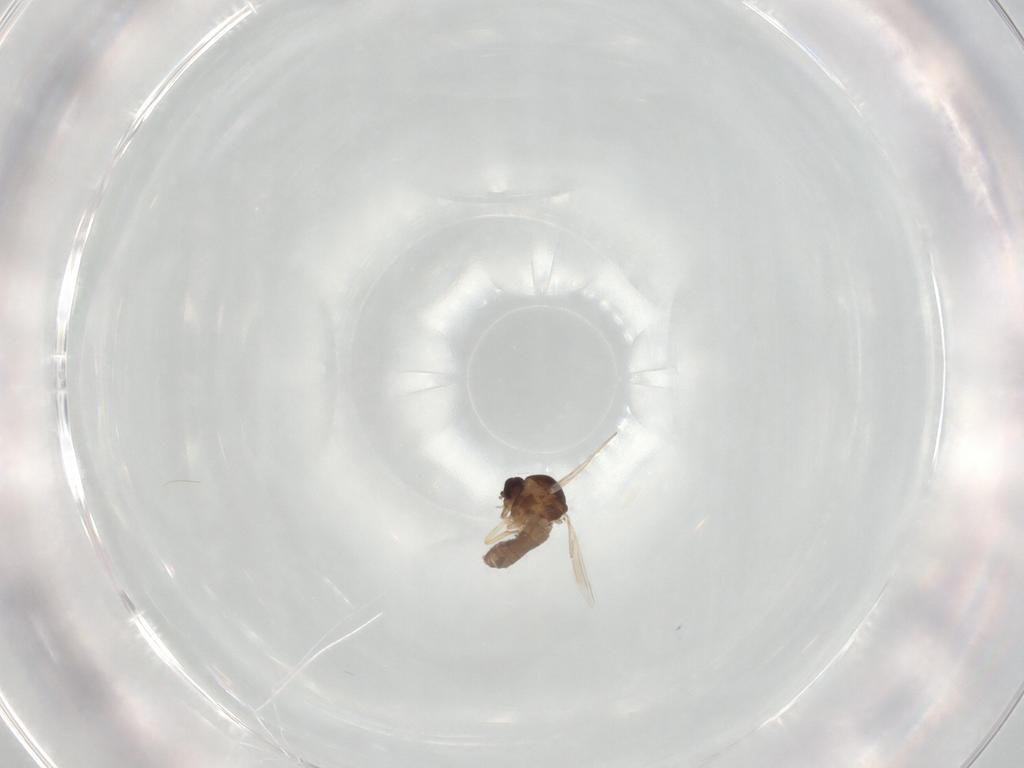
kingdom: Animalia
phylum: Arthropoda
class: Insecta
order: Diptera
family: Ceratopogonidae
